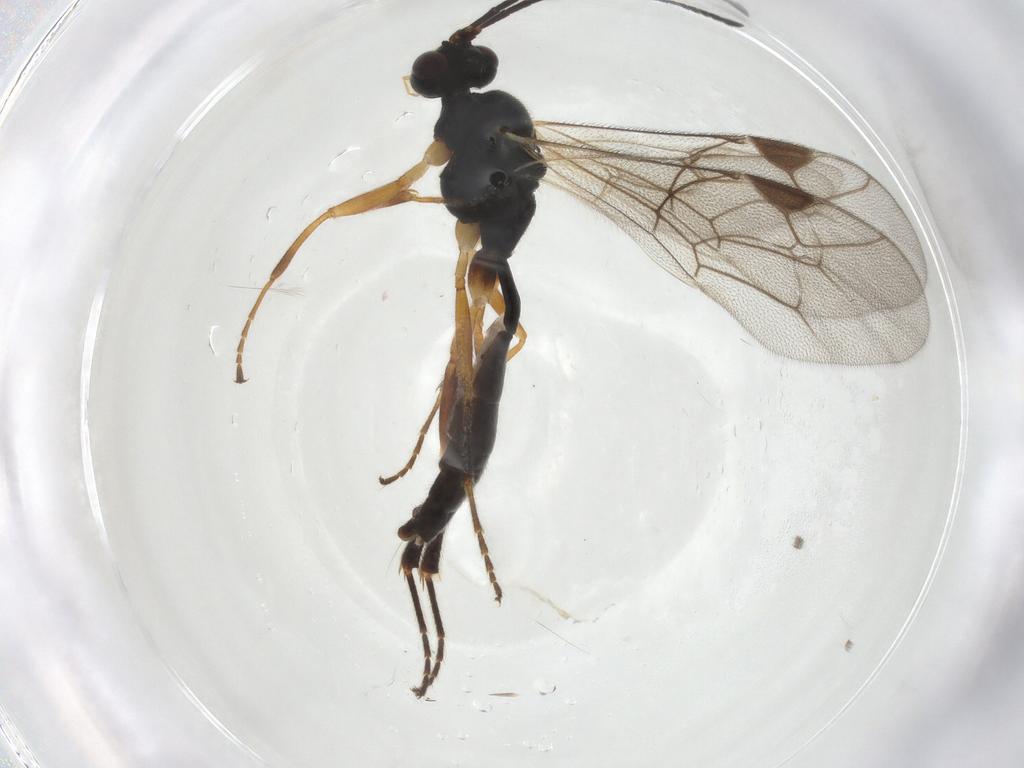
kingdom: Animalia
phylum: Arthropoda
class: Insecta
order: Hymenoptera
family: Ichneumonidae
